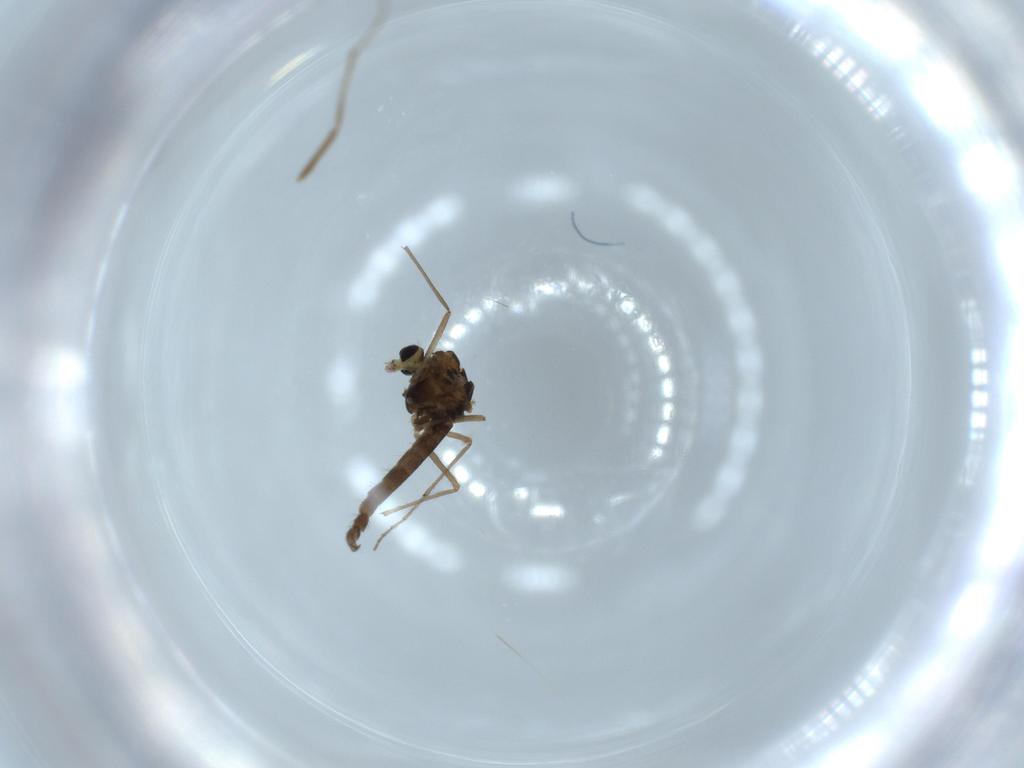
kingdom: Animalia
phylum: Arthropoda
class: Insecta
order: Diptera
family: Chironomidae
